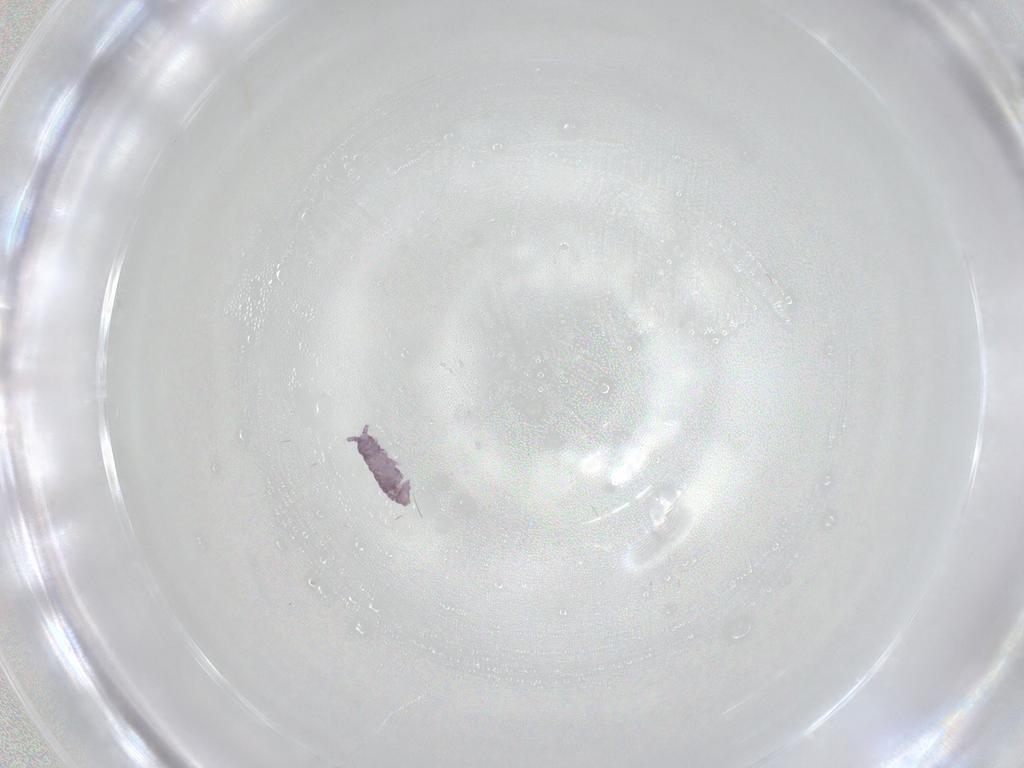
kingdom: Animalia
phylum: Arthropoda
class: Collembola
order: Poduromorpha
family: Brachystomellidae
